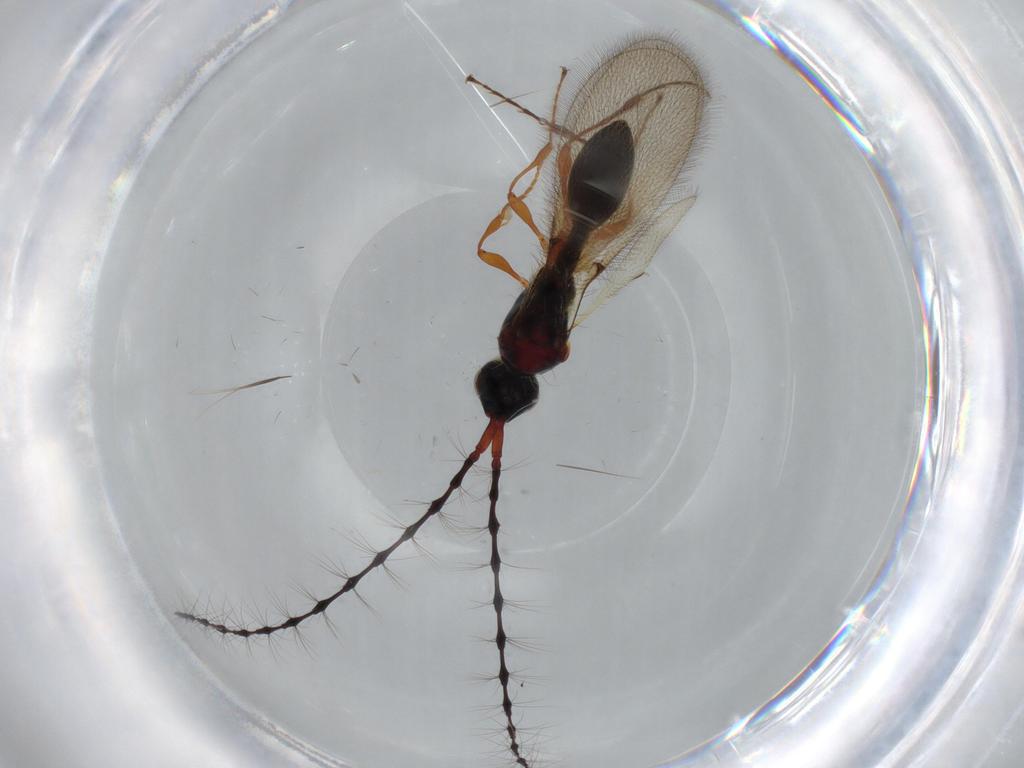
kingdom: Animalia
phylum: Arthropoda
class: Insecta
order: Hymenoptera
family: Diapriidae
